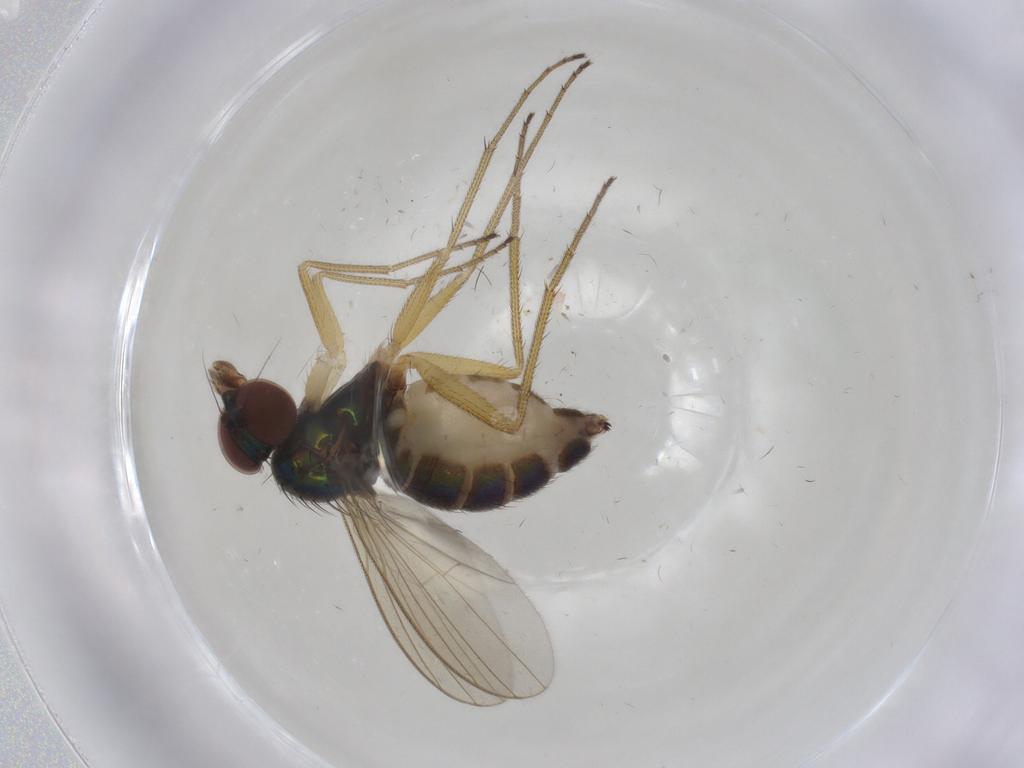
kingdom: Animalia
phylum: Arthropoda
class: Insecta
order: Diptera
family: Dolichopodidae
